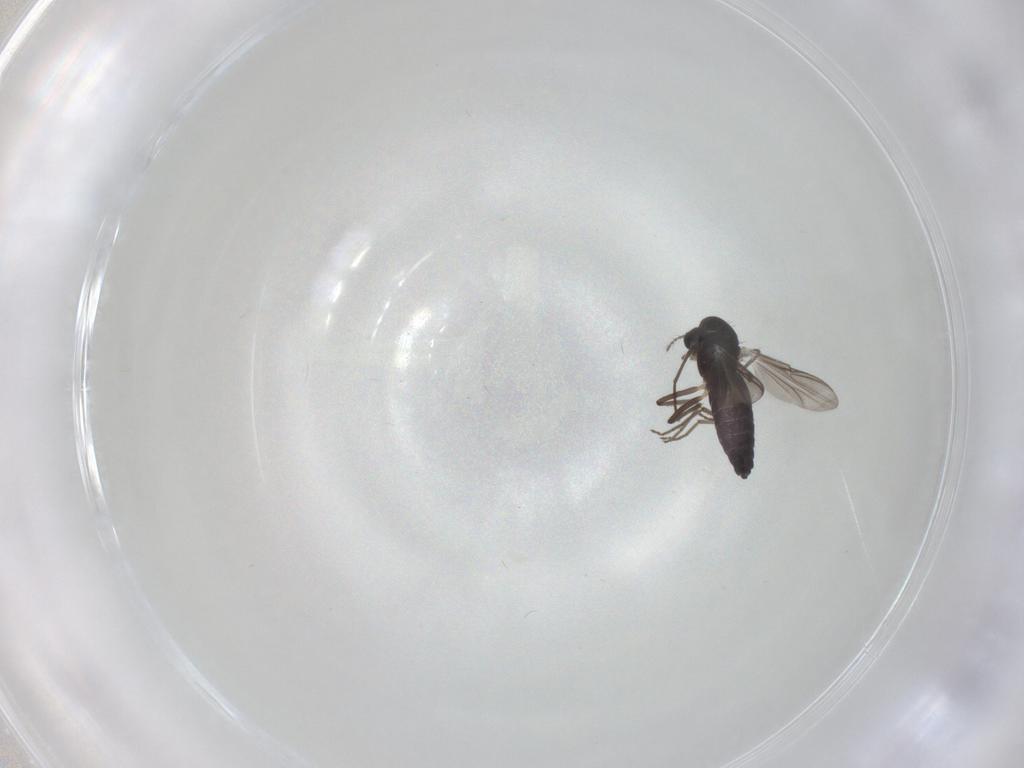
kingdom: Animalia
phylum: Arthropoda
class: Insecta
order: Diptera
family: Chironomidae
